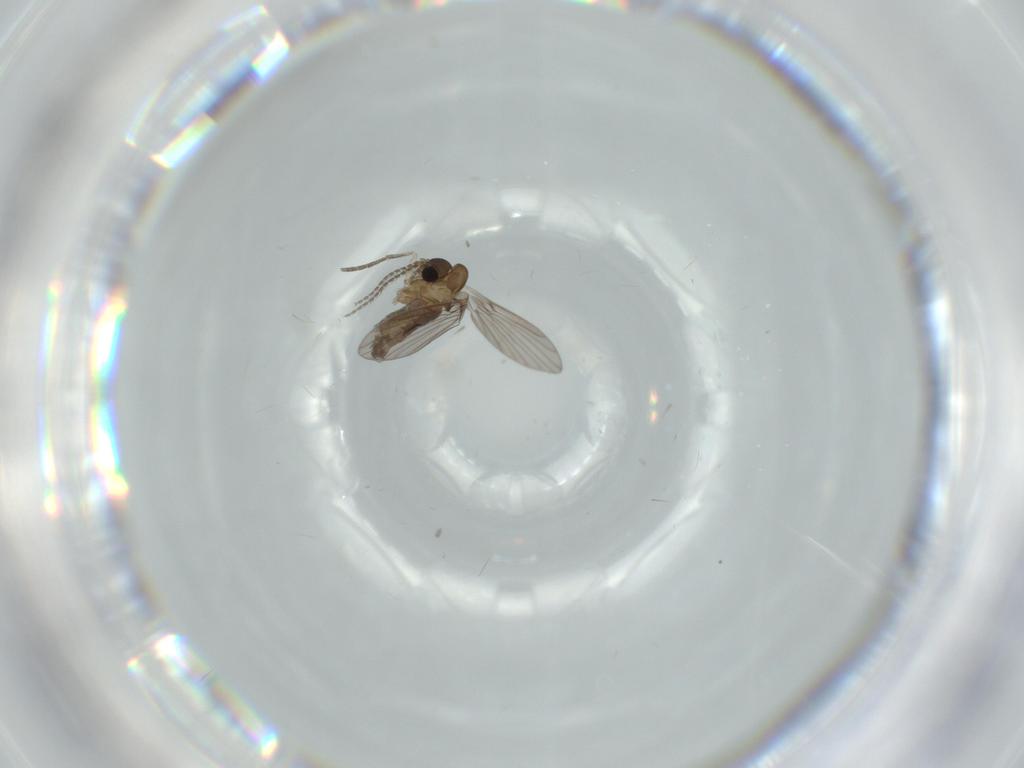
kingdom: Animalia
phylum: Arthropoda
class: Insecta
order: Diptera
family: Psychodidae
